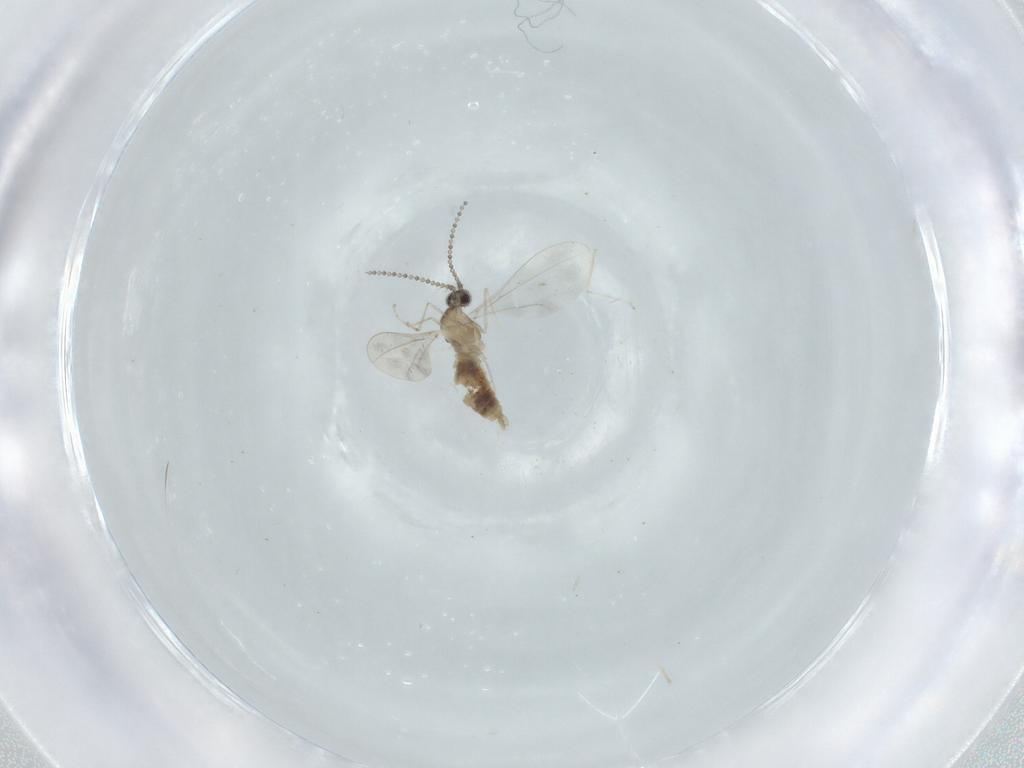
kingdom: Animalia
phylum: Arthropoda
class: Insecta
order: Diptera
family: Cecidomyiidae
